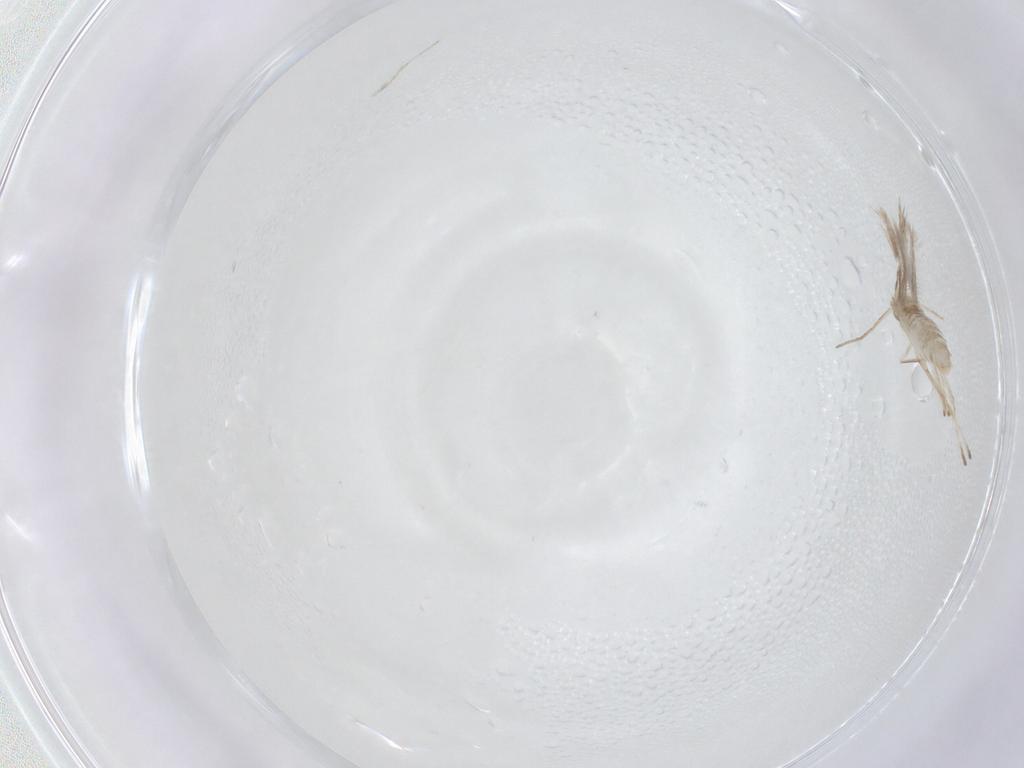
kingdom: Animalia
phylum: Arthropoda
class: Insecta
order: Lepidoptera
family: Gracillariidae
